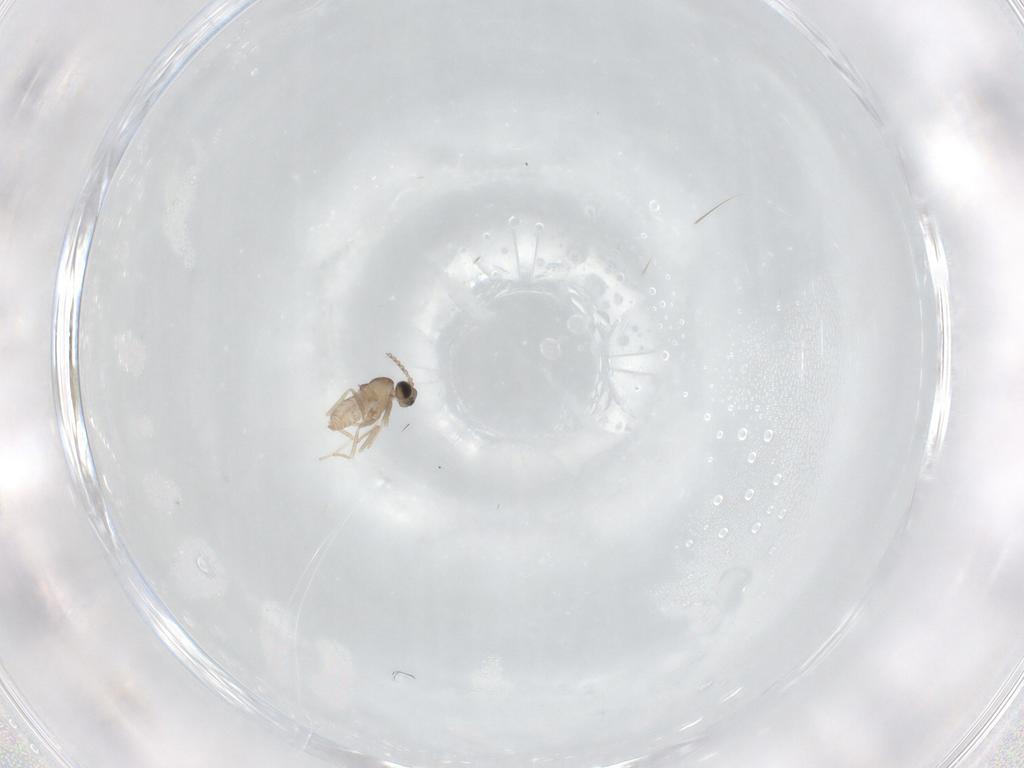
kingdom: Animalia
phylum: Arthropoda
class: Insecta
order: Diptera
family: Cecidomyiidae
